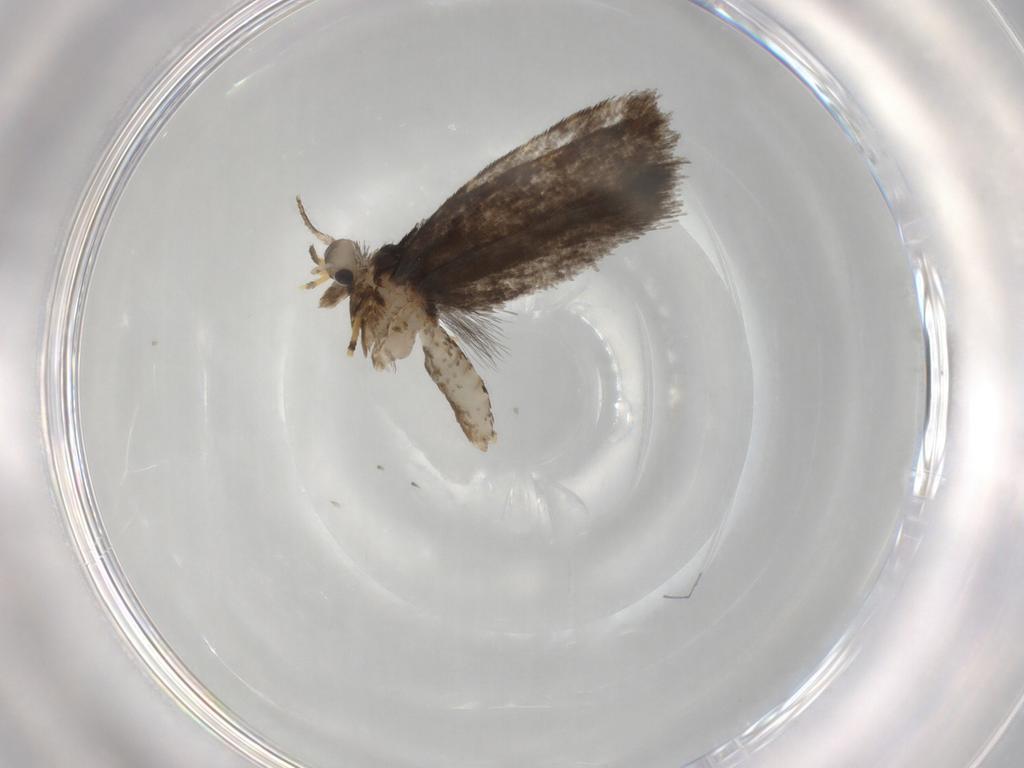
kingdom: Animalia
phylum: Arthropoda
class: Insecta
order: Lepidoptera
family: Psychidae
